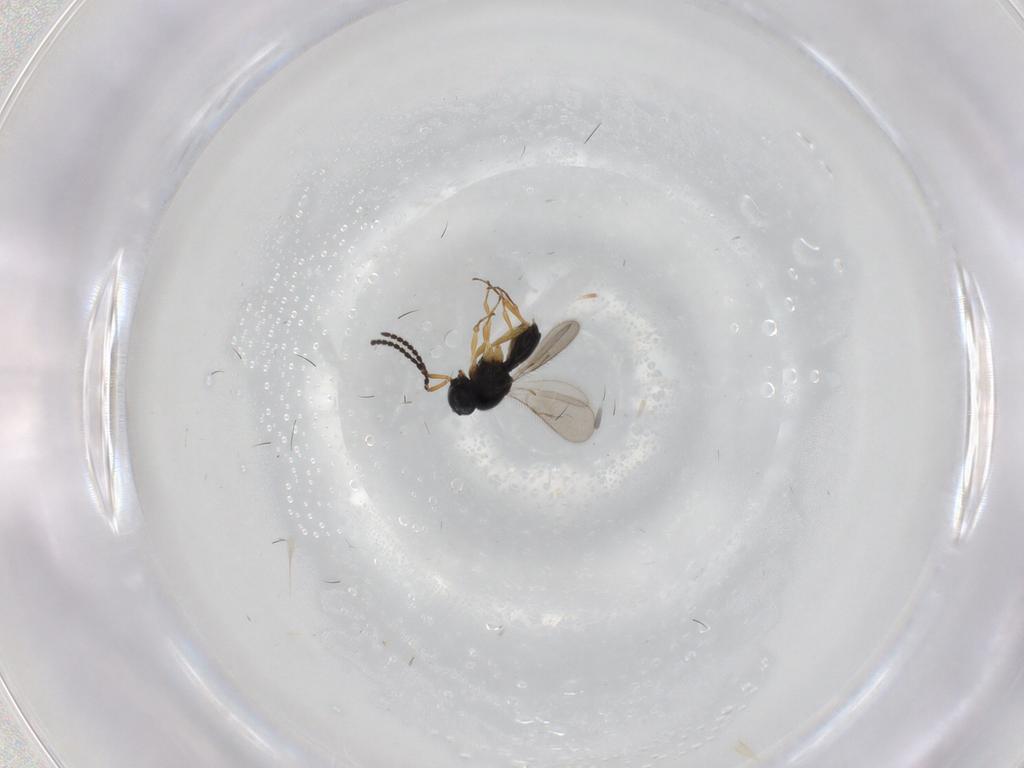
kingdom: Animalia
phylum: Arthropoda
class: Insecta
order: Hymenoptera
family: Scelionidae
